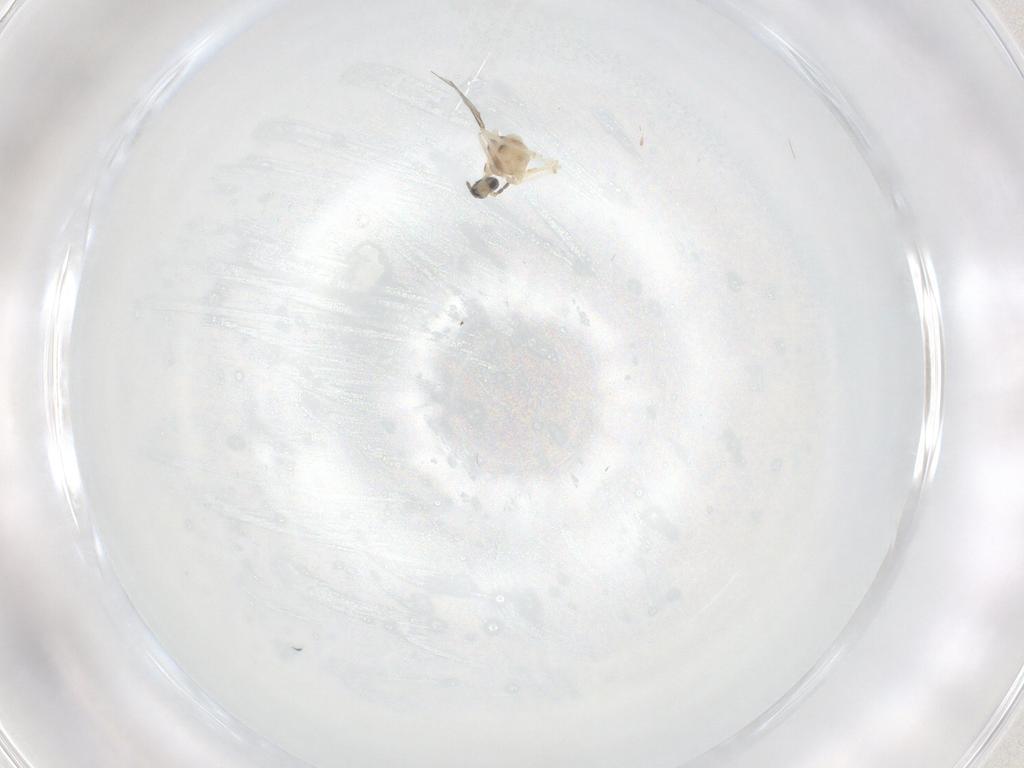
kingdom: Animalia
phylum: Arthropoda
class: Insecta
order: Diptera
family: Cecidomyiidae
